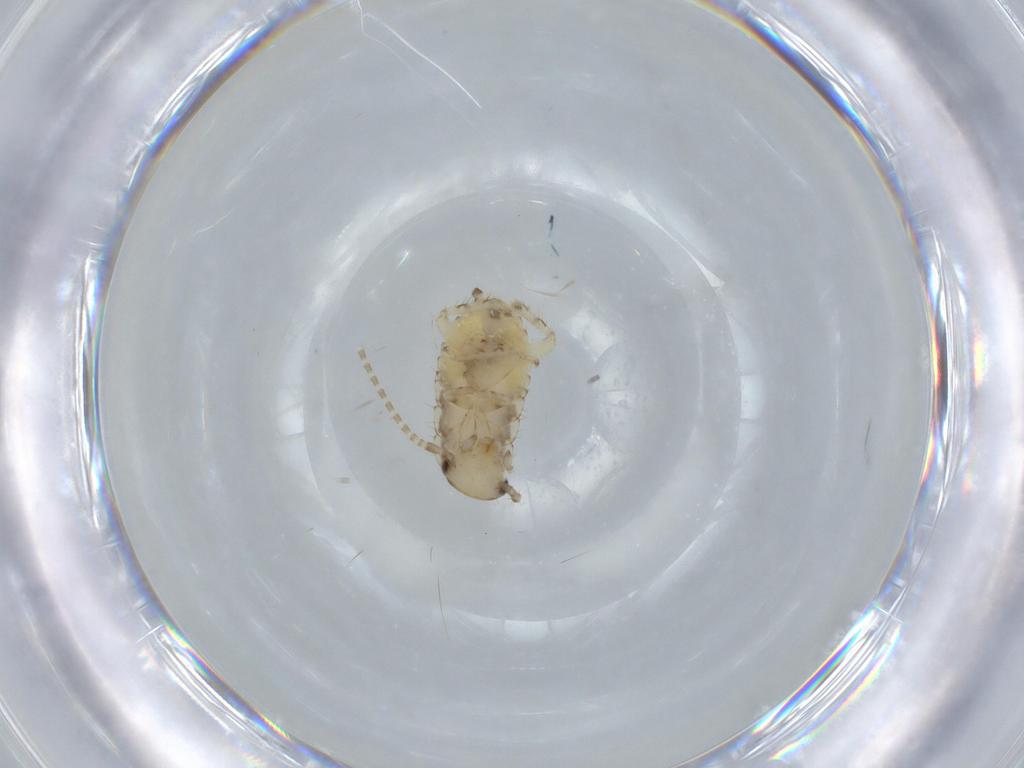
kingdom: Animalia
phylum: Arthropoda
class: Insecta
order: Blattodea
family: Ectobiidae
